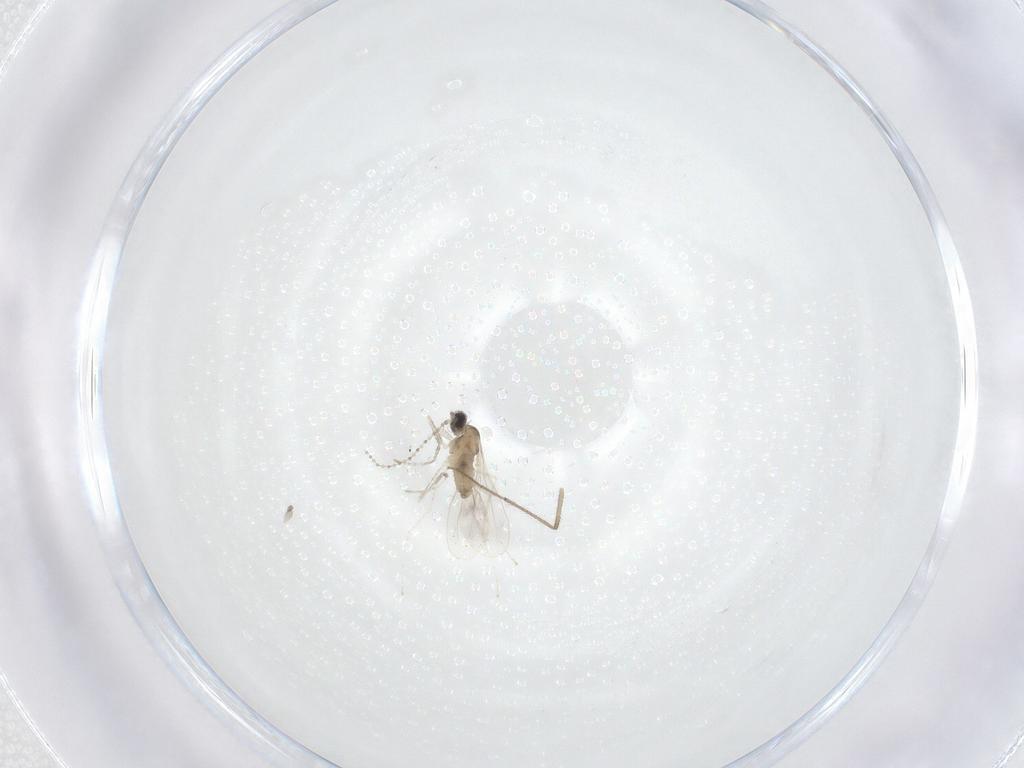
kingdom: Animalia
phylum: Arthropoda
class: Insecta
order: Diptera
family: Chironomidae
